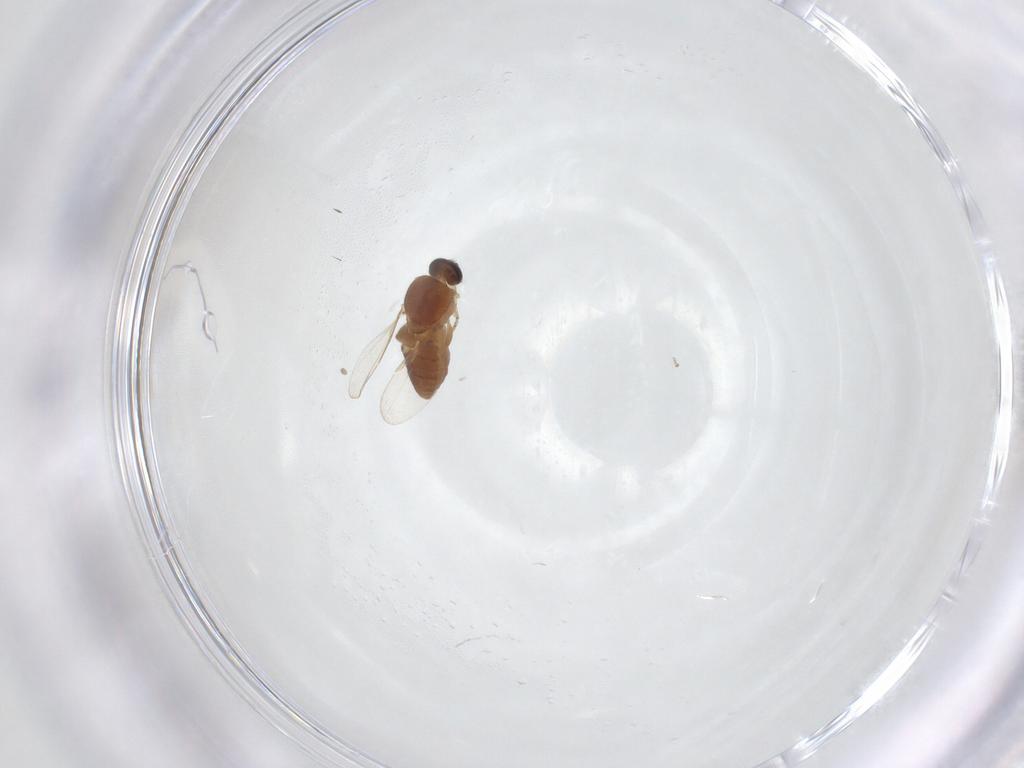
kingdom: Animalia
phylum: Arthropoda
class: Insecta
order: Diptera
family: Ceratopogonidae
